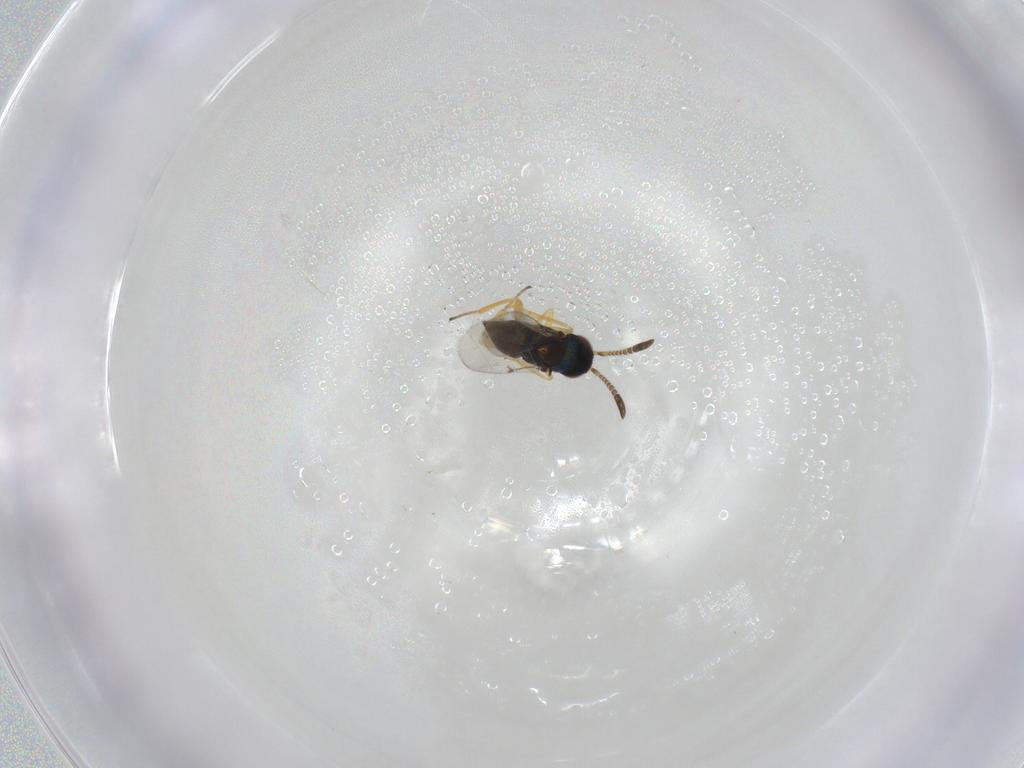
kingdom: Animalia
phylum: Arthropoda
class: Insecta
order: Hymenoptera
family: Encyrtidae
